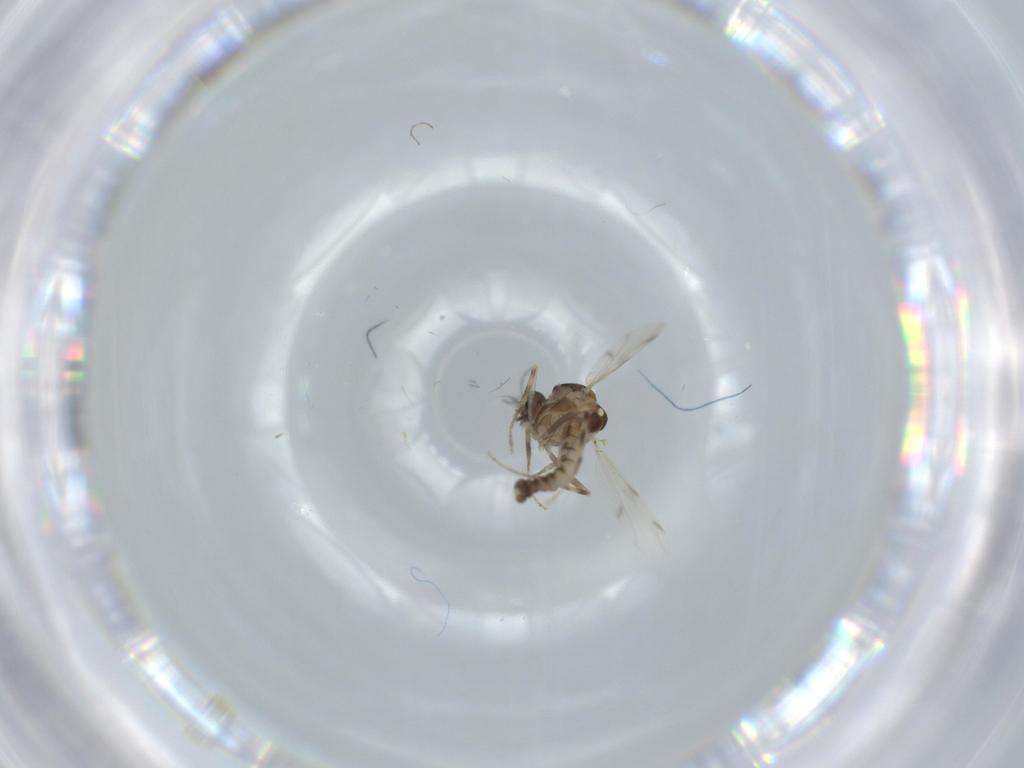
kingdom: Animalia
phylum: Arthropoda
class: Insecta
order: Diptera
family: Ceratopogonidae
